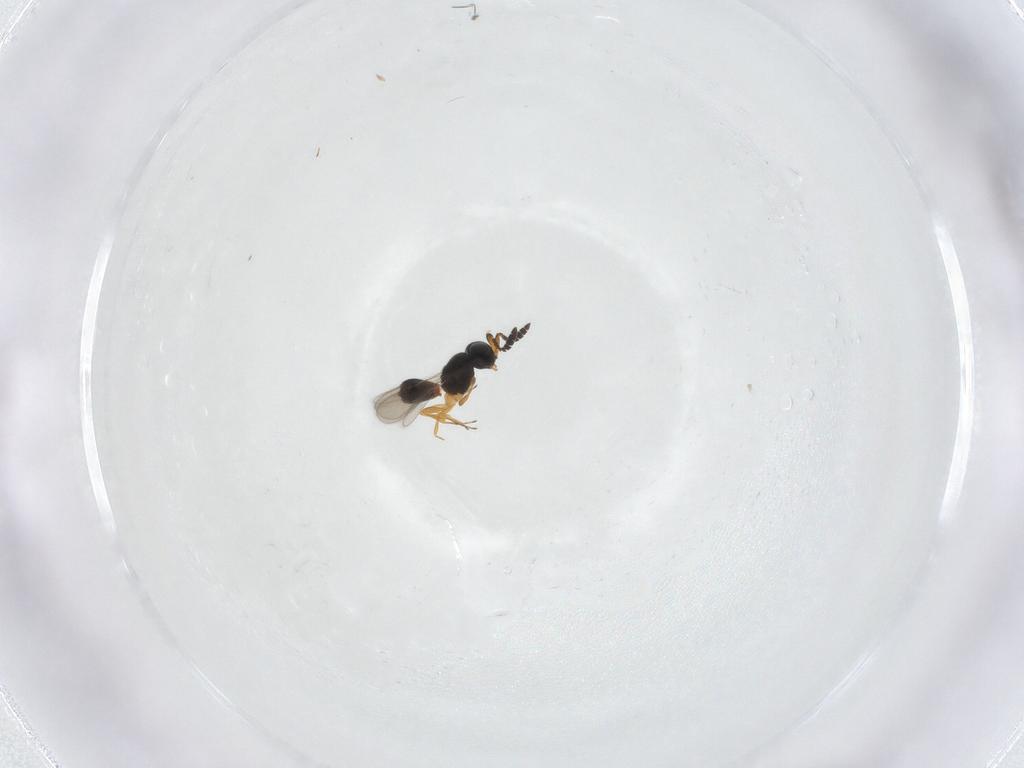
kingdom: Animalia
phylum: Arthropoda
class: Insecta
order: Hymenoptera
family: Scelionidae
